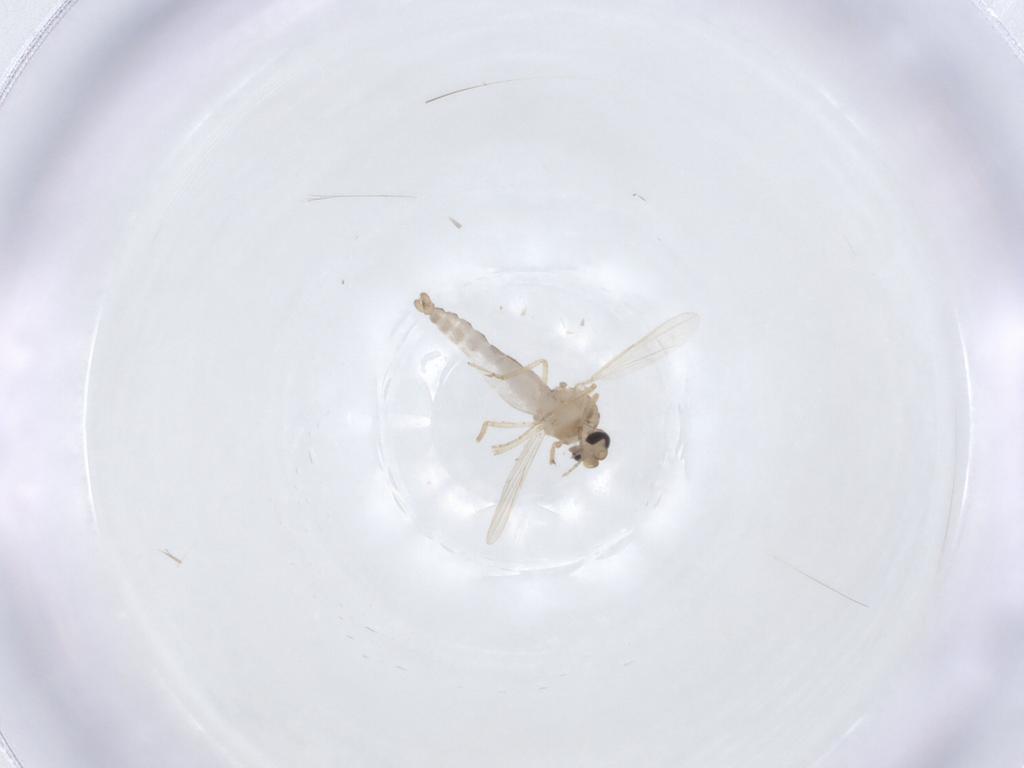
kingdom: Animalia
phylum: Arthropoda
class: Insecta
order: Diptera
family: Ceratopogonidae
